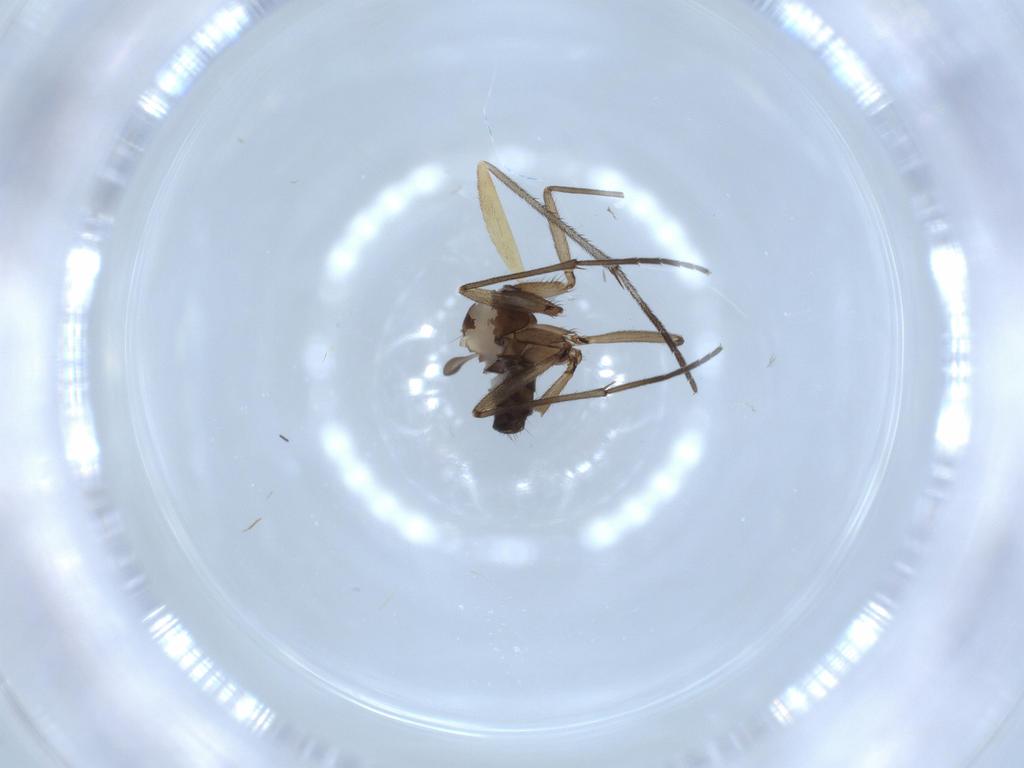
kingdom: Animalia
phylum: Arthropoda
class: Insecta
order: Diptera
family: Sciaridae
